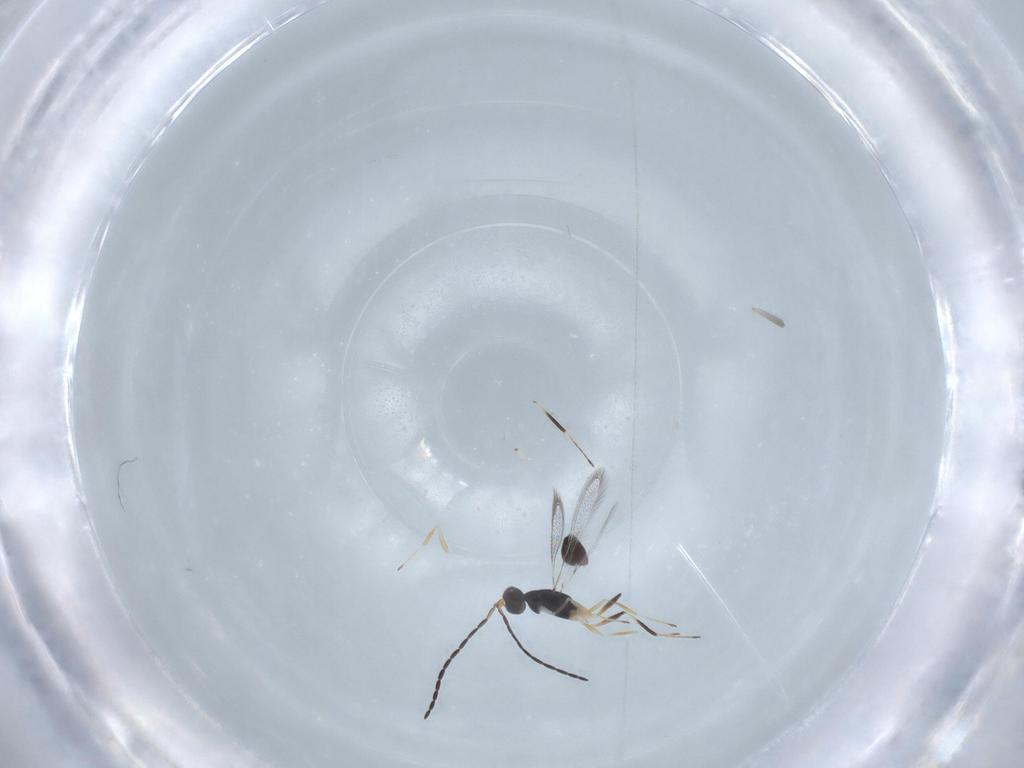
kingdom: Animalia
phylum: Arthropoda
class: Insecta
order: Hymenoptera
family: Mymaridae
